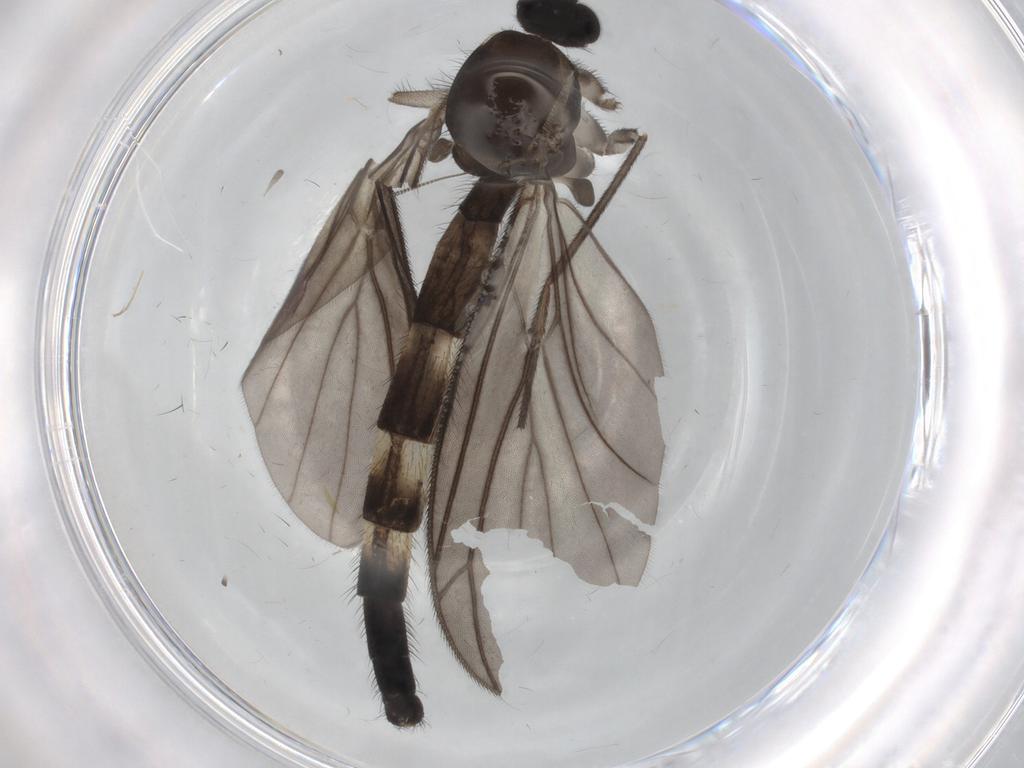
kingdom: Animalia
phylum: Arthropoda
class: Insecta
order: Diptera
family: Keroplatidae
